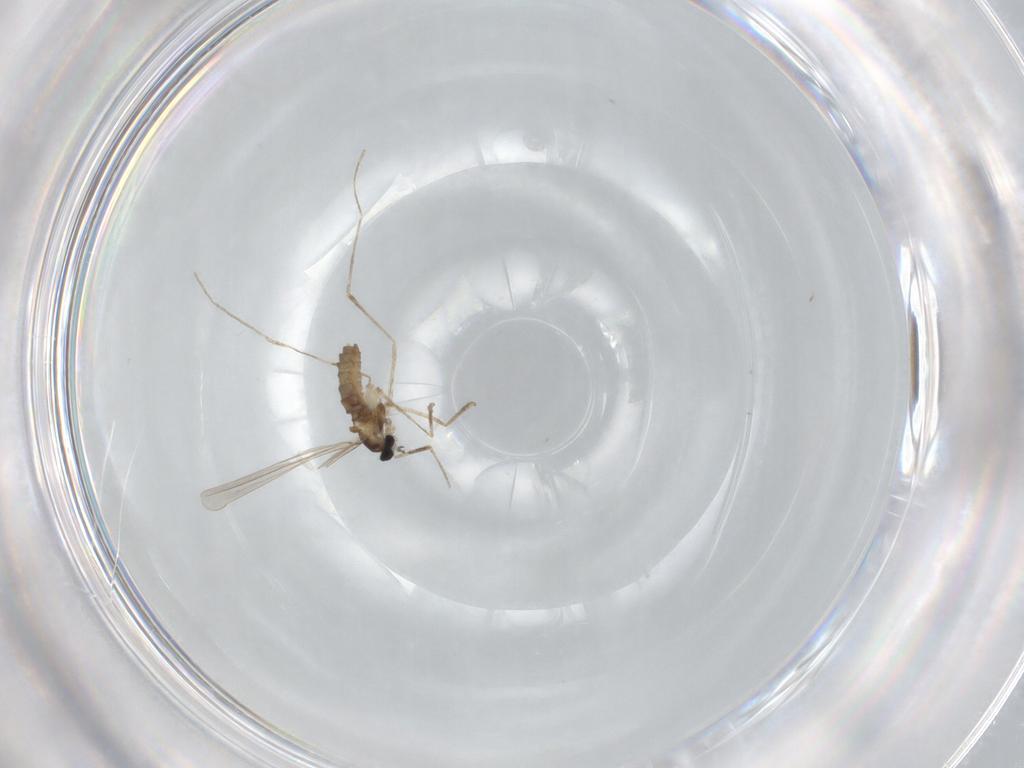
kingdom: Animalia
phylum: Arthropoda
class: Insecta
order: Diptera
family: Cecidomyiidae
